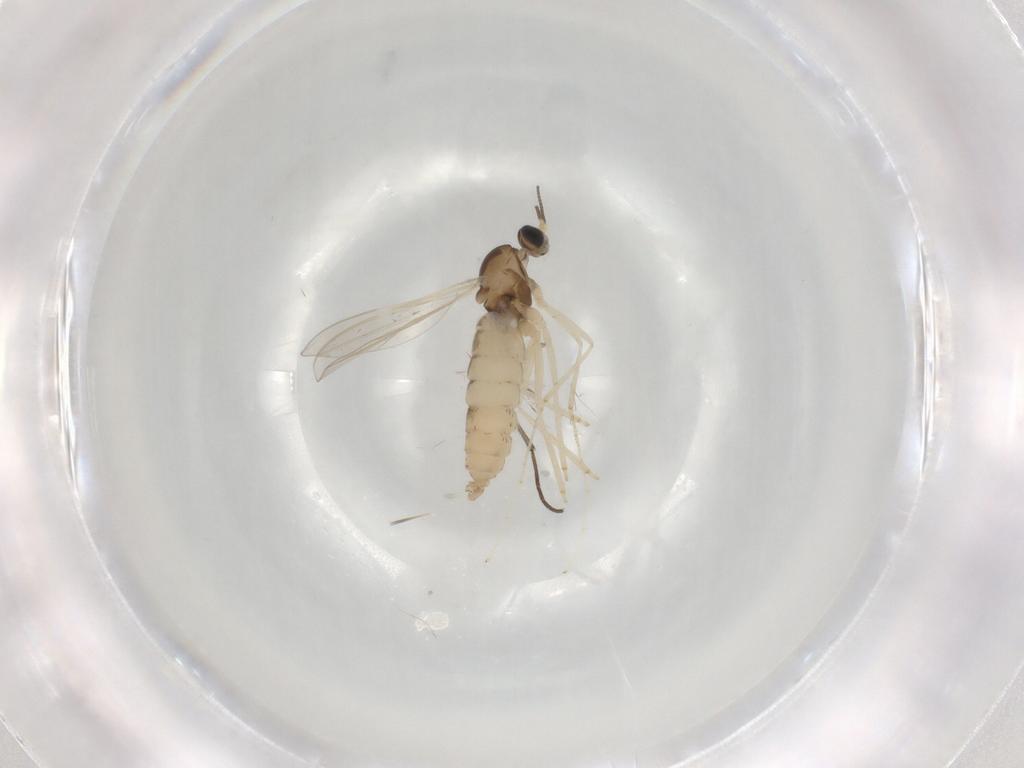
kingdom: Animalia
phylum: Arthropoda
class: Insecta
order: Diptera
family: Cecidomyiidae
